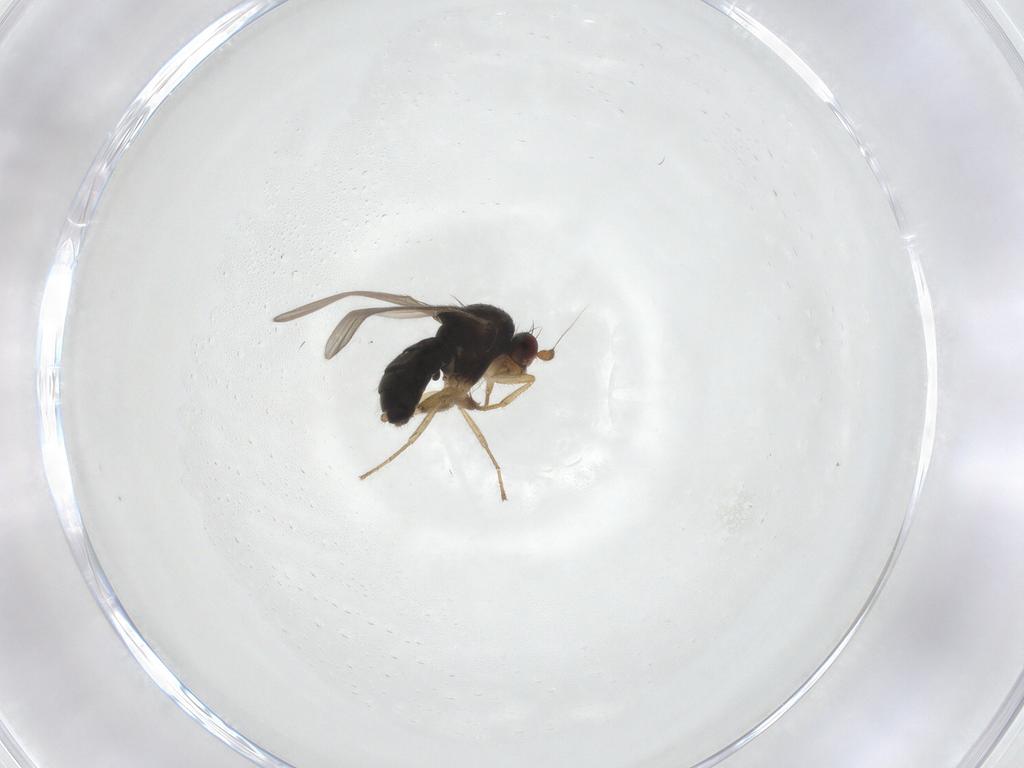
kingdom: Animalia
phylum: Arthropoda
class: Insecta
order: Diptera
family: Sphaeroceridae
